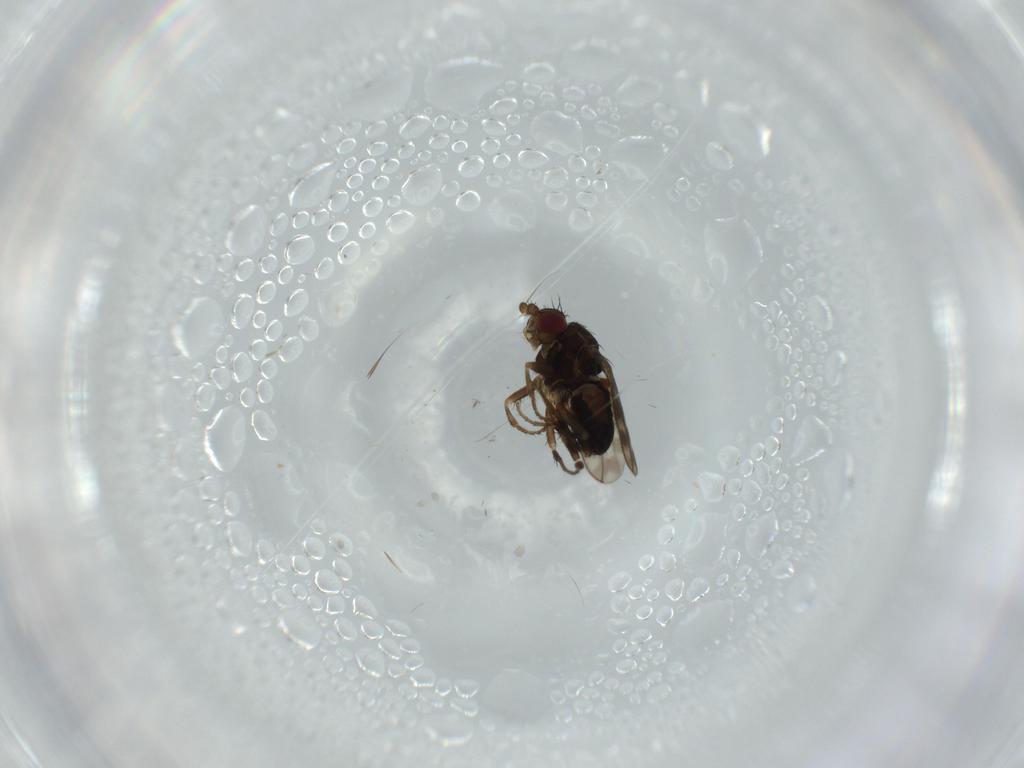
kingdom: Animalia
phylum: Arthropoda
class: Insecta
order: Diptera
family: Sphaeroceridae
